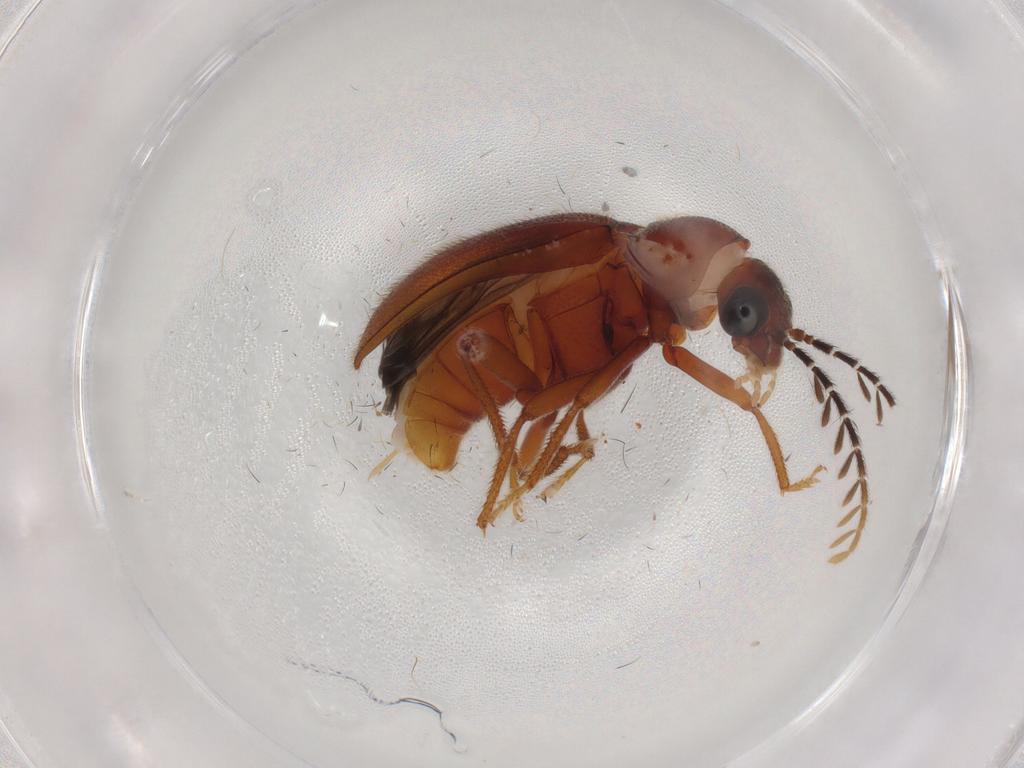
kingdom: Animalia
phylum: Arthropoda
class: Insecta
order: Coleoptera
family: Ptilodactylidae
